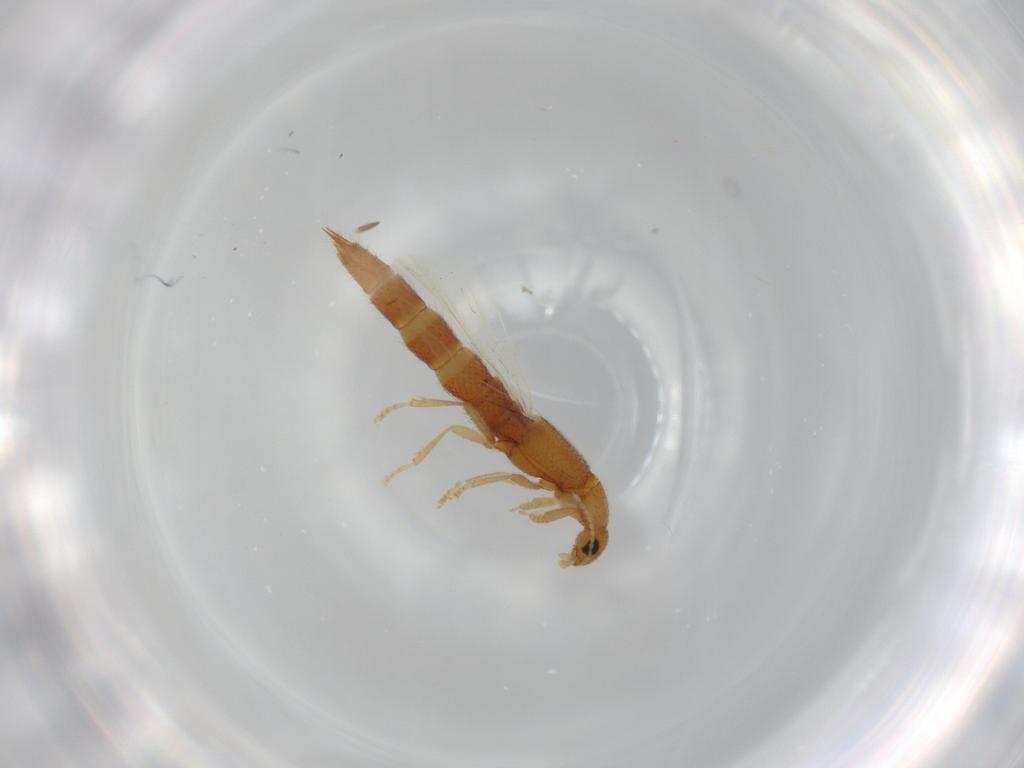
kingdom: Animalia
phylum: Arthropoda
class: Insecta
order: Coleoptera
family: Staphylinidae
